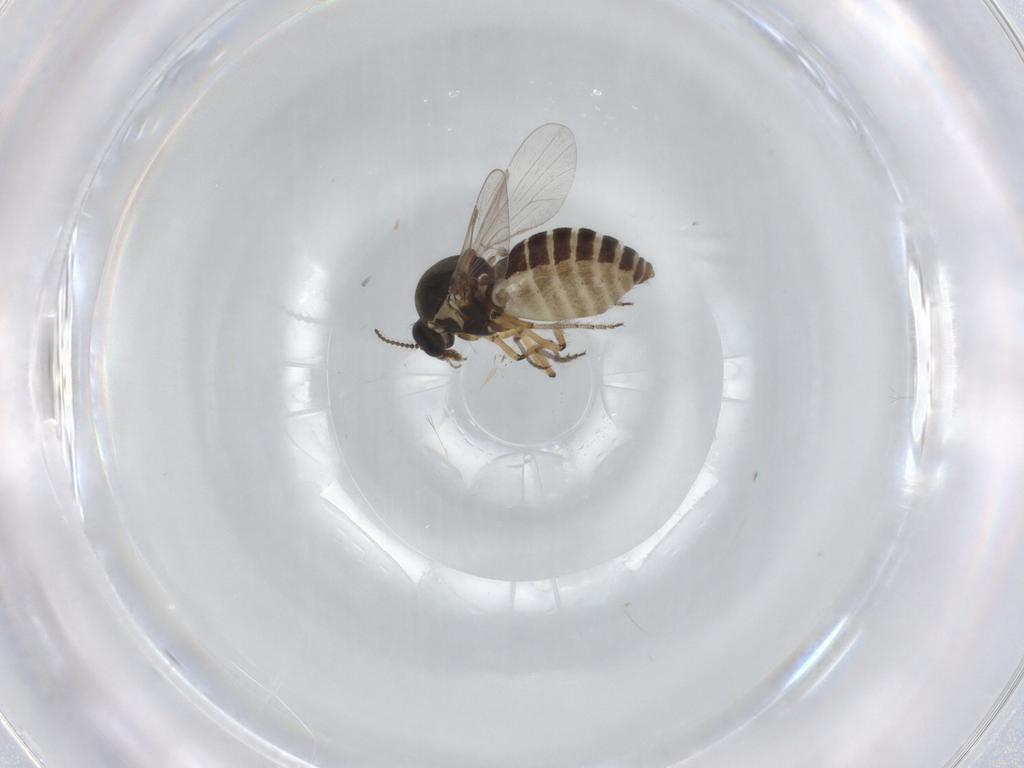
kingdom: Animalia
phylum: Arthropoda
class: Insecta
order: Diptera
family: Ceratopogonidae
